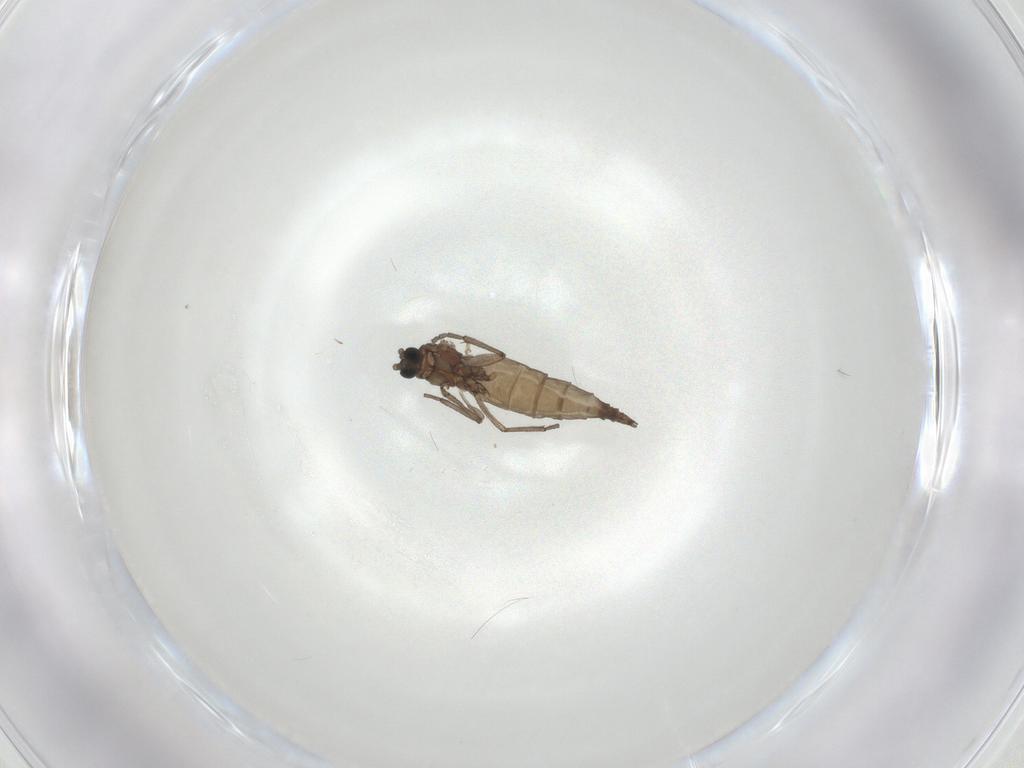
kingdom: Animalia
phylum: Arthropoda
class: Insecta
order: Diptera
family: Sciaridae
